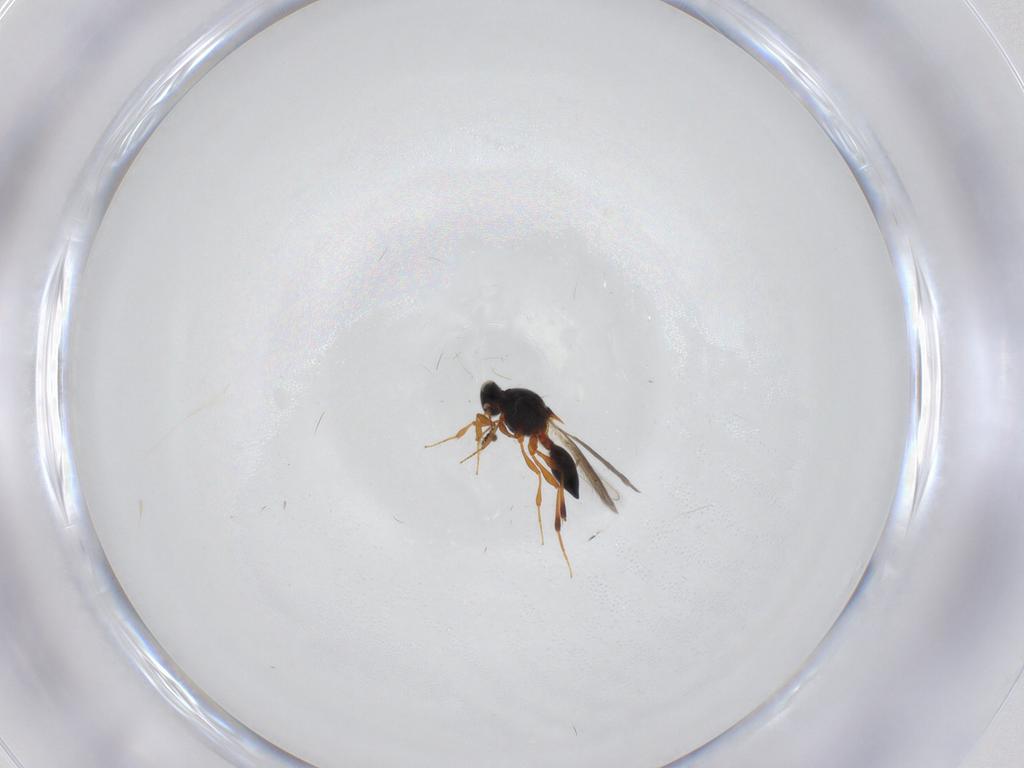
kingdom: Animalia
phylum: Arthropoda
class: Insecta
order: Hymenoptera
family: Platygastridae
